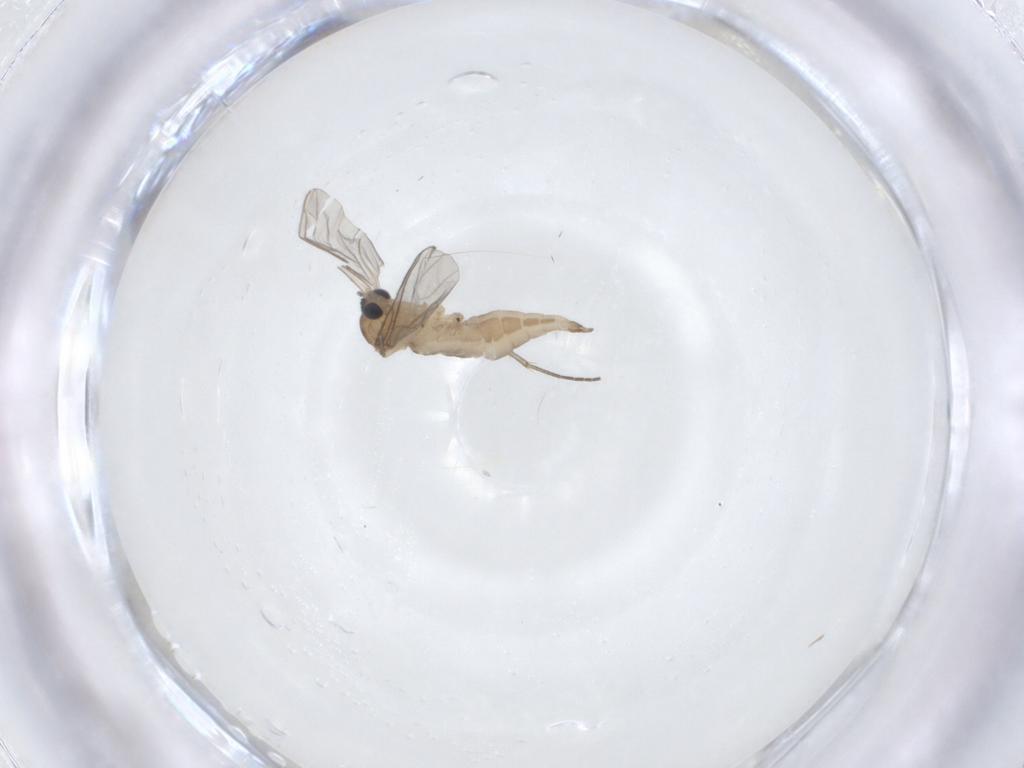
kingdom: Animalia
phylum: Arthropoda
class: Insecta
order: Diptera
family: Sciaridae
